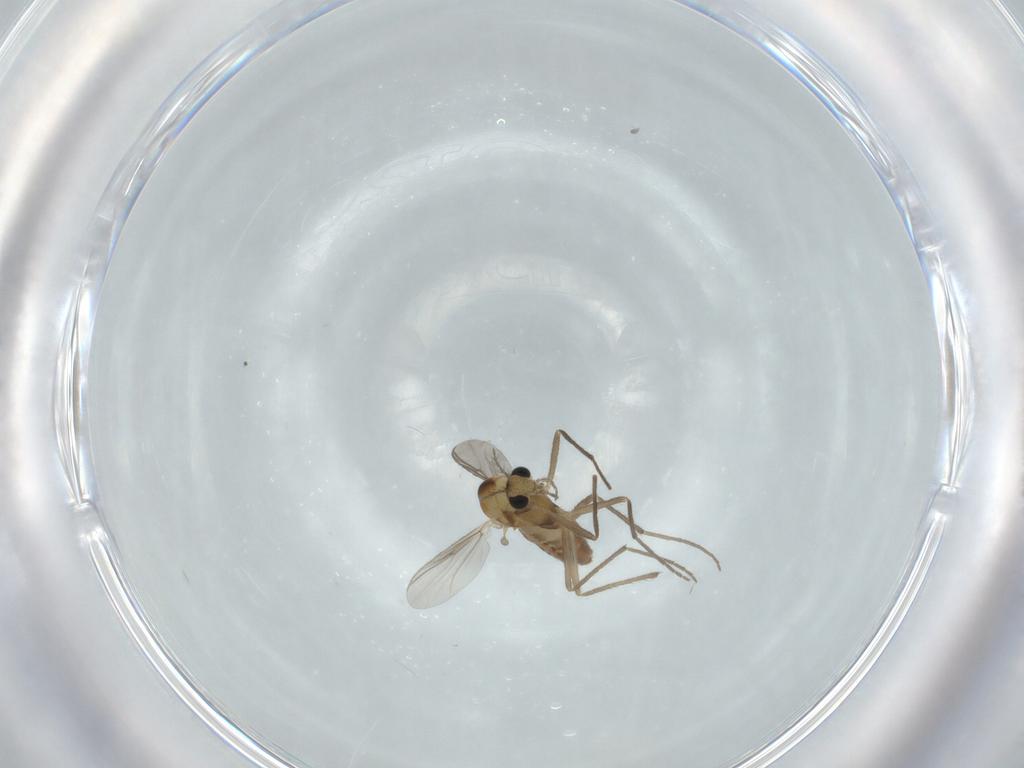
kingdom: Animalia
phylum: Arthropoda
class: Insecta
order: Diptera
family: Chironomidae
